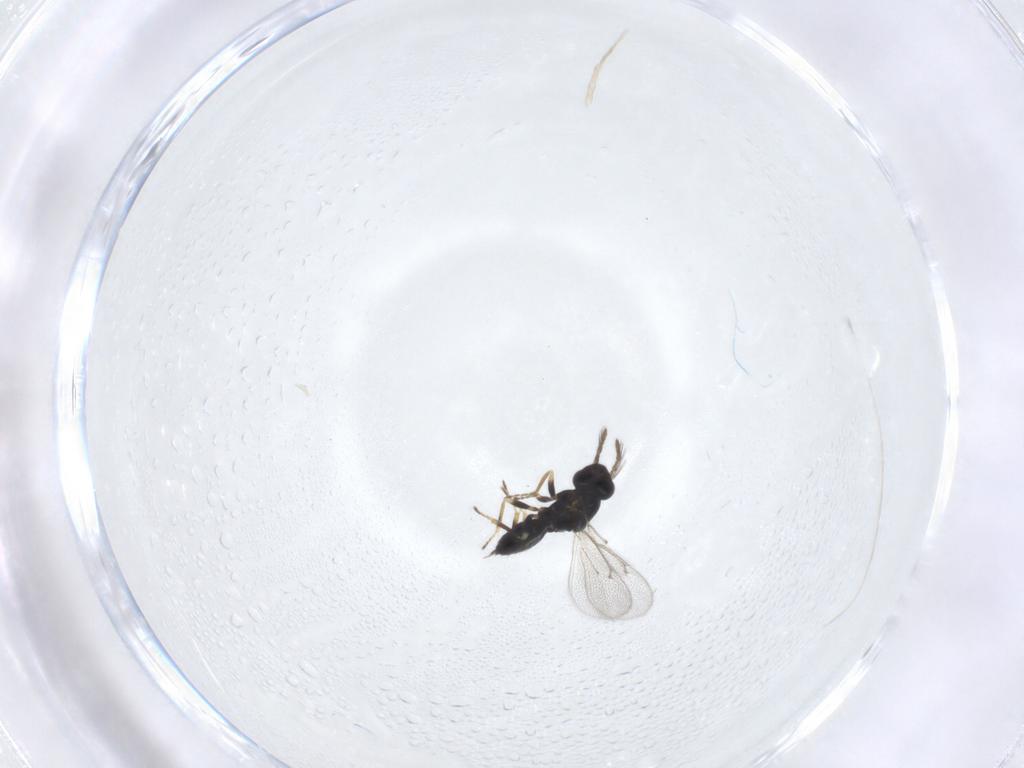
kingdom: Animalia
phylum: Arthropoda
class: Insecta
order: Hymenoptera
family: Eulophidae
